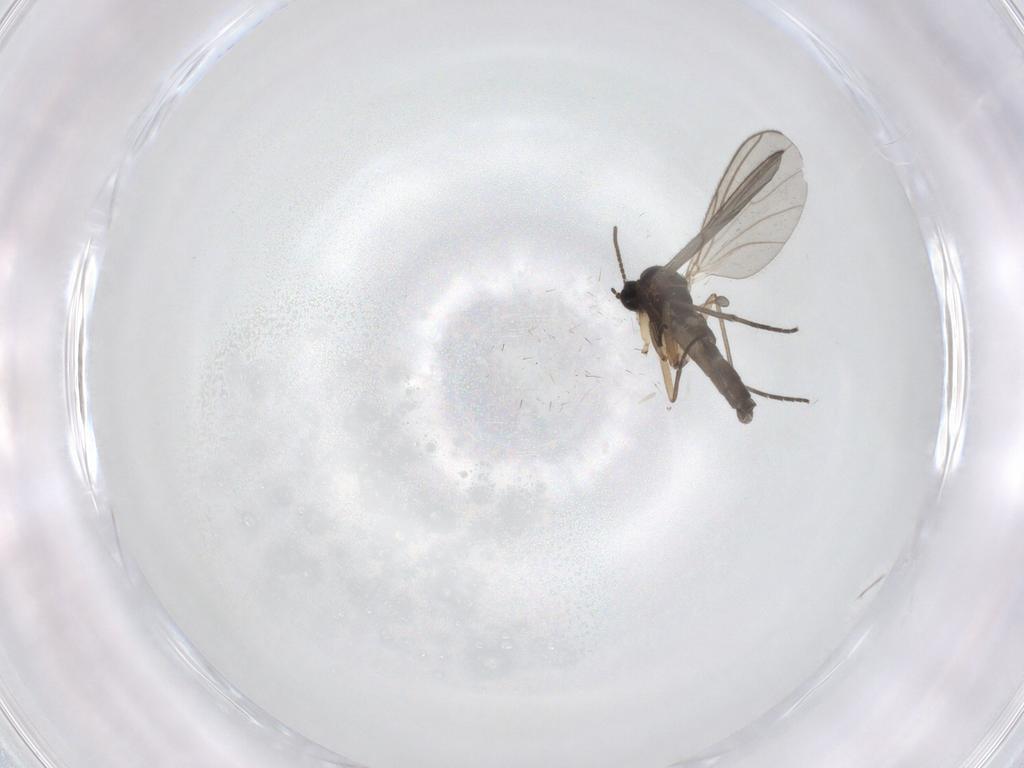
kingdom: Animalia
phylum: Arthropoda
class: Insecta
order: Diptera
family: Sciaridae
